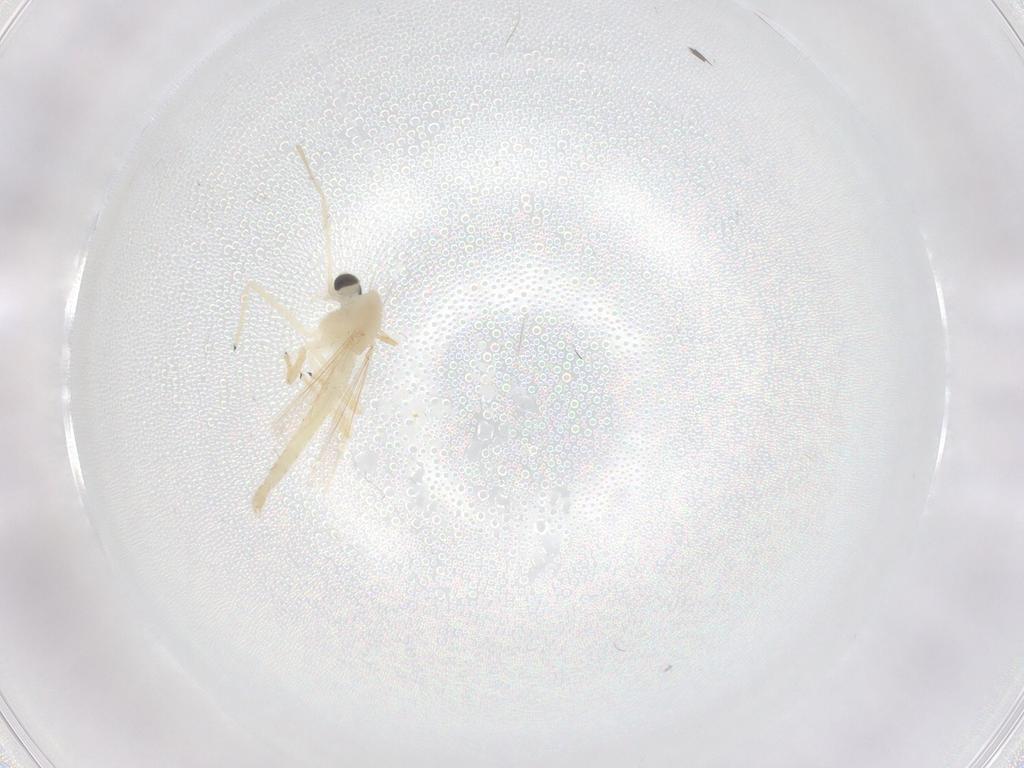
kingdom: Animalia
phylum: Arthropoda
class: Insecta
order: Diptera
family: Chironomidae
